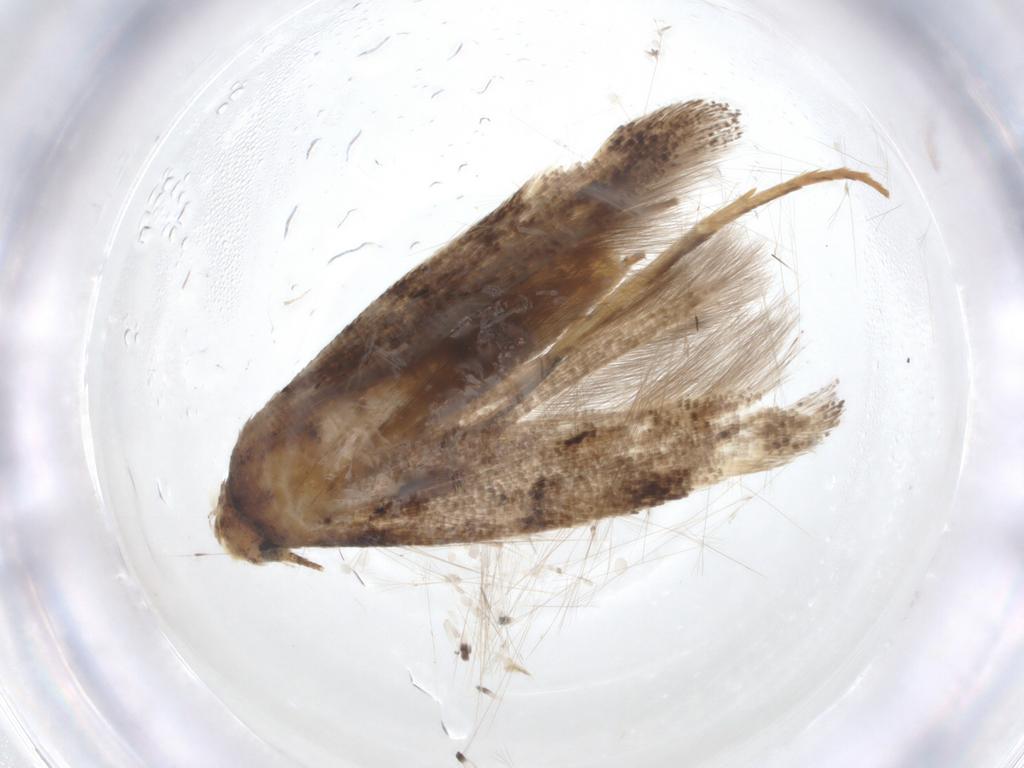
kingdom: Animalia
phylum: Arthropoda
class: Insecta
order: Lepidoptera
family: Momphidae
